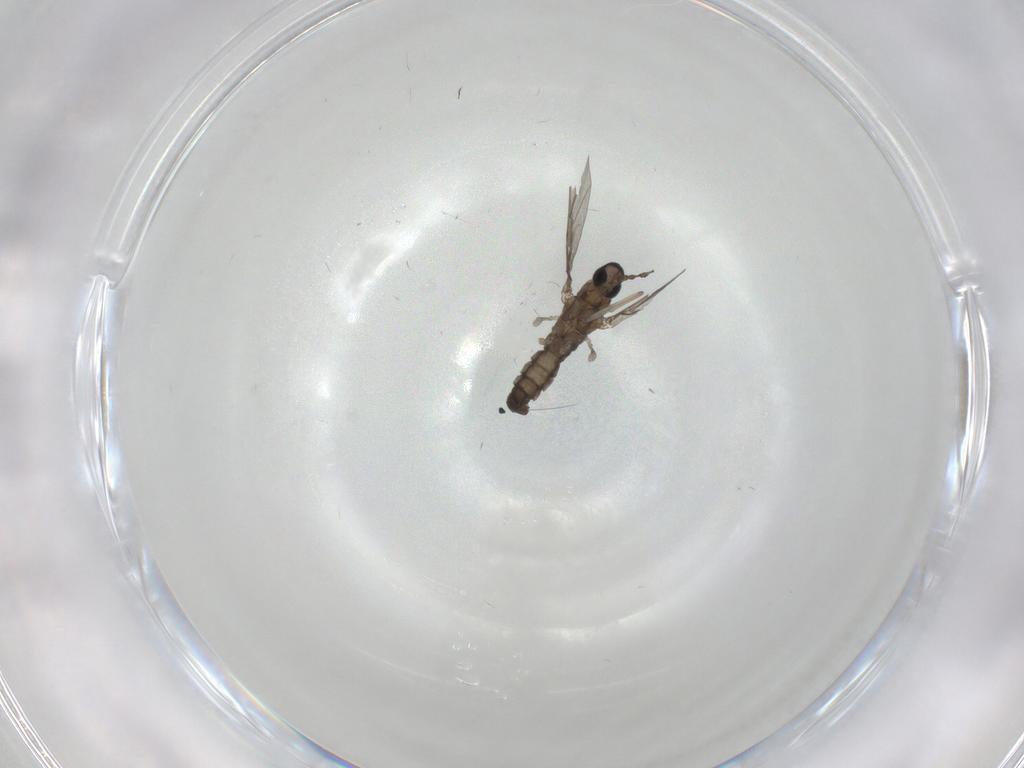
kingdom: Animalia
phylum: Arthropoda
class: Insecta
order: Diptera
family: Cecidomyiidae
